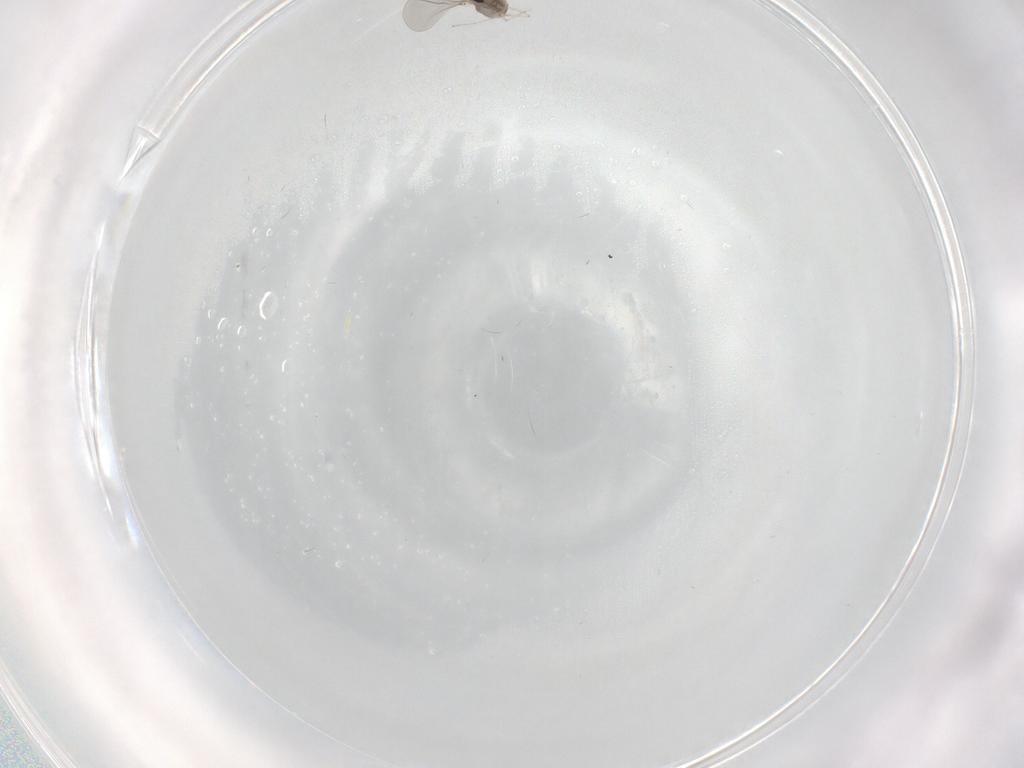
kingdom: Animalia
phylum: Arthropoda
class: Insecta
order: Diptera
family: Cecidomyiidae
